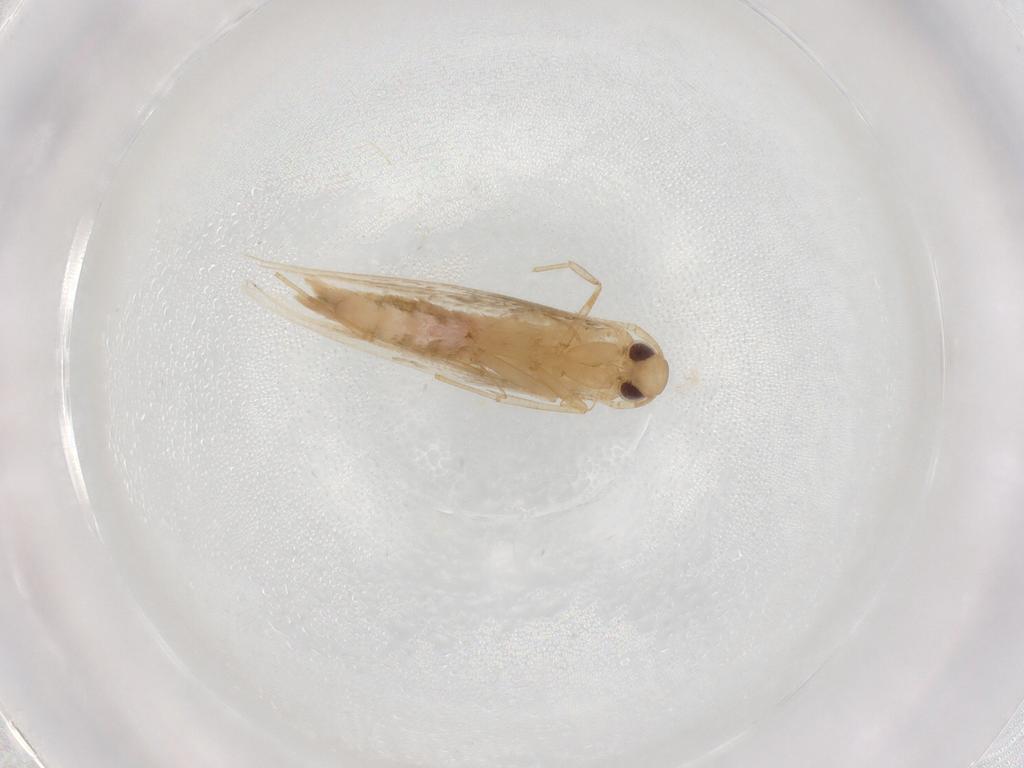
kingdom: Animalia
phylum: Arthropoda
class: Insecta
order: Lepidoptera
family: Cosmopterigidae
